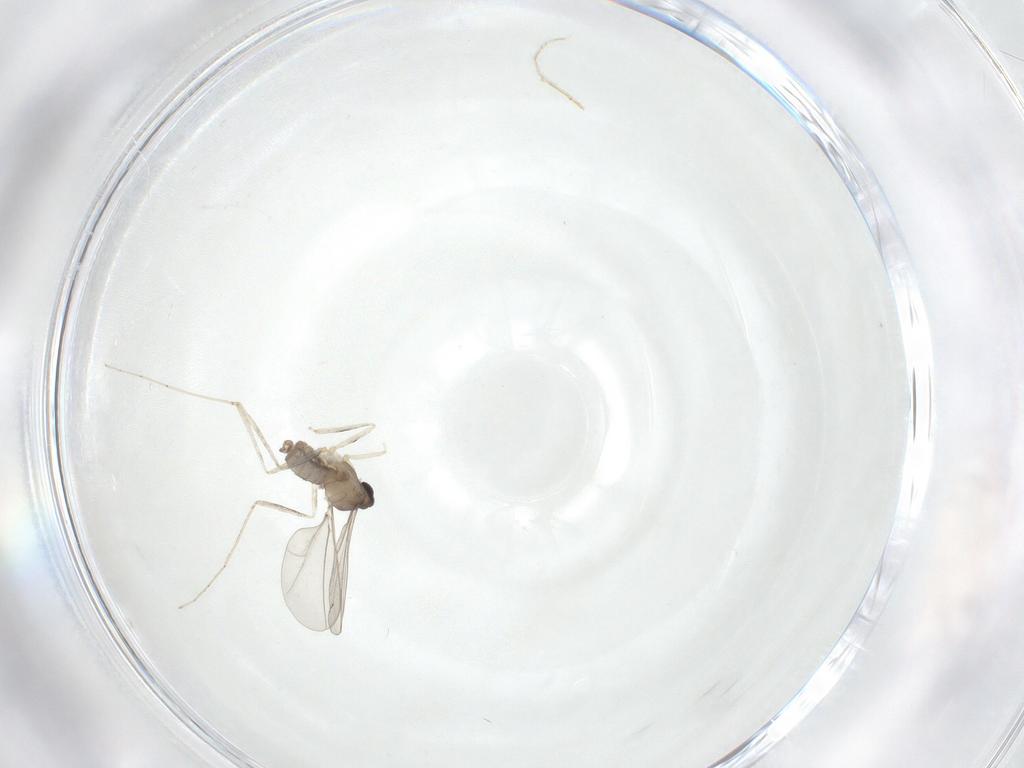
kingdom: Animalia
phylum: Arthropoda
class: Insecta
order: Diptera
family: Cecidomyiidae
